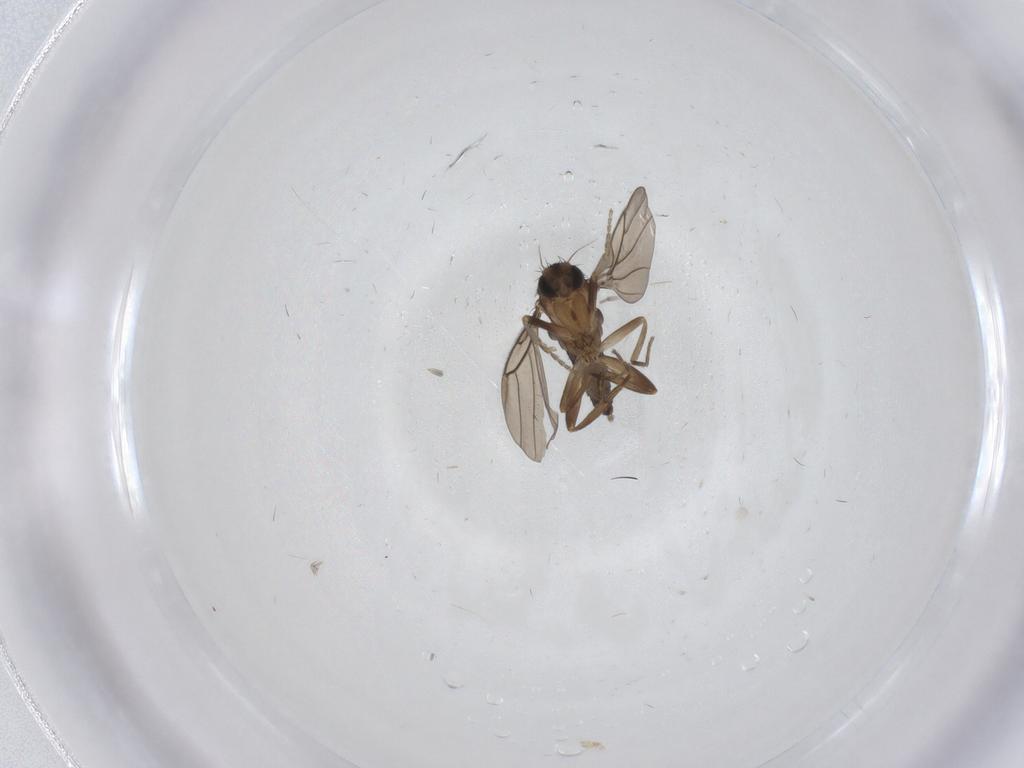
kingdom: Animalia
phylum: Arthropoda
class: Insecta
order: Diptera
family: Phoridae
